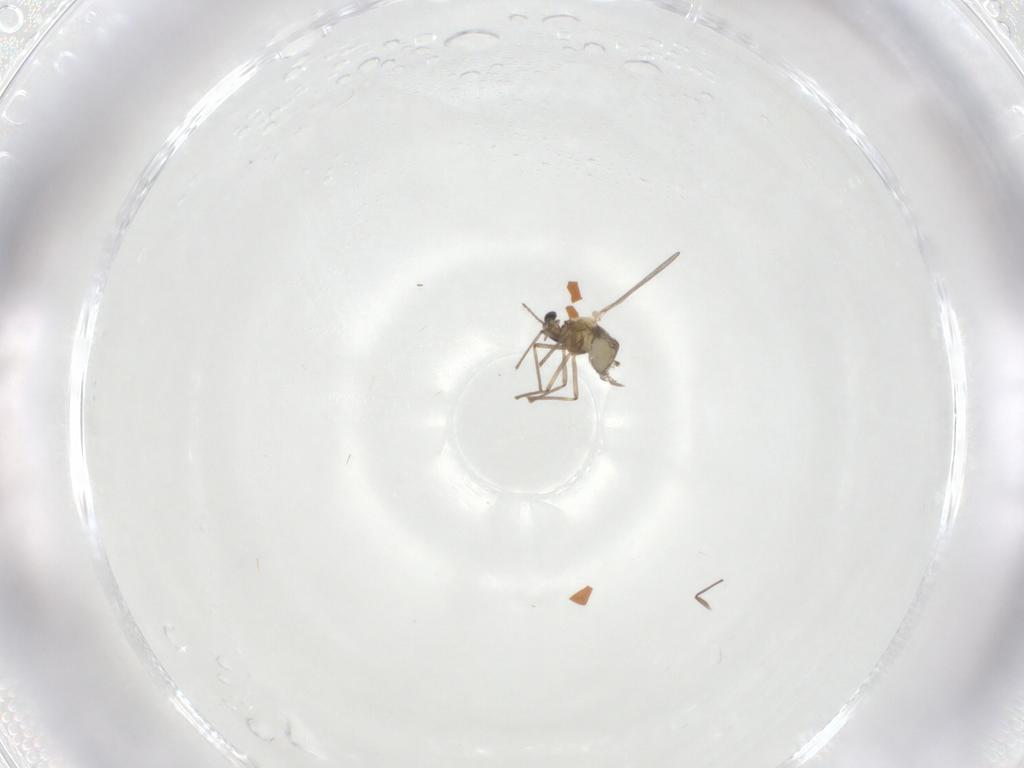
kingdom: Animalia
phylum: Arthropoda
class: Insecta
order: Diptera
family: Chironomidae
